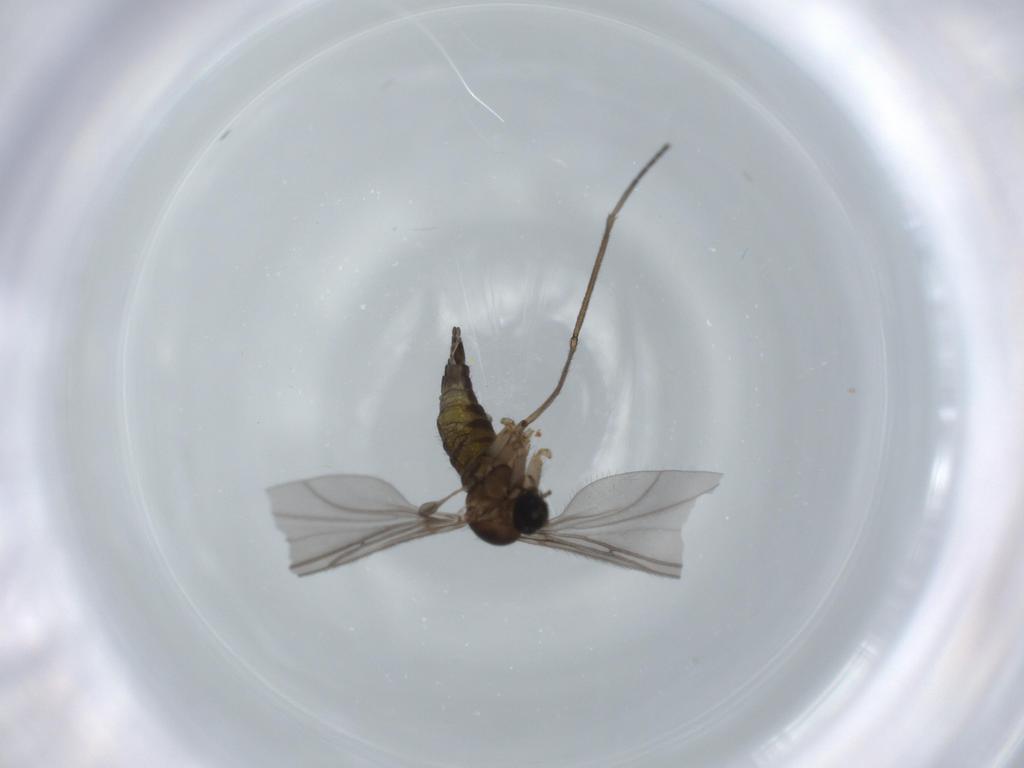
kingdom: Animalia
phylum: Arthropoda
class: Insecta
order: Diptera
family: Sciaridae
